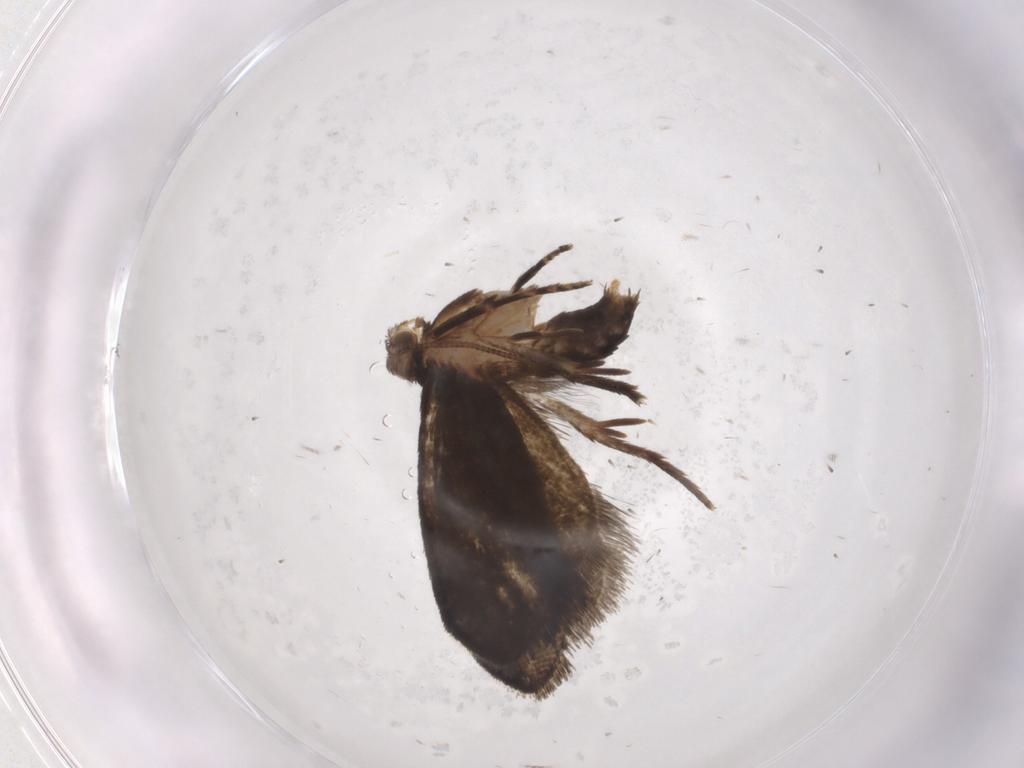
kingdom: Animalia
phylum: Arthropoda
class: Insecta
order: Lepidoptera
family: Tineidae
